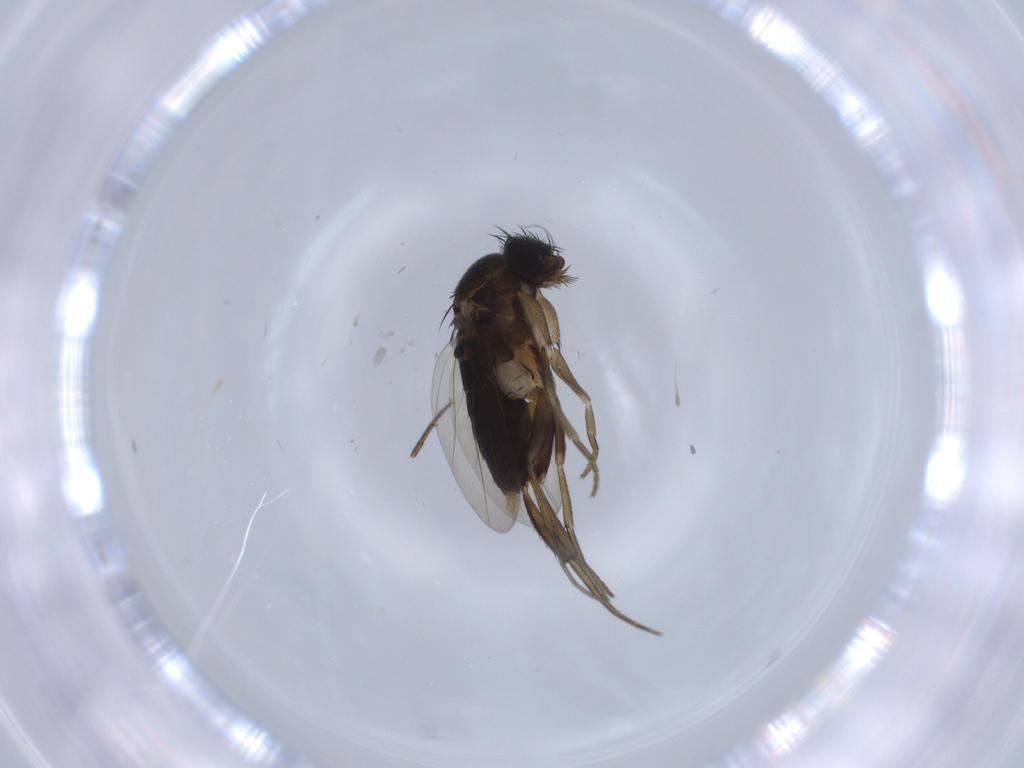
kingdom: Animalia
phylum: Arthropoda
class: Insecta
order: Diptera
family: Phoridae
